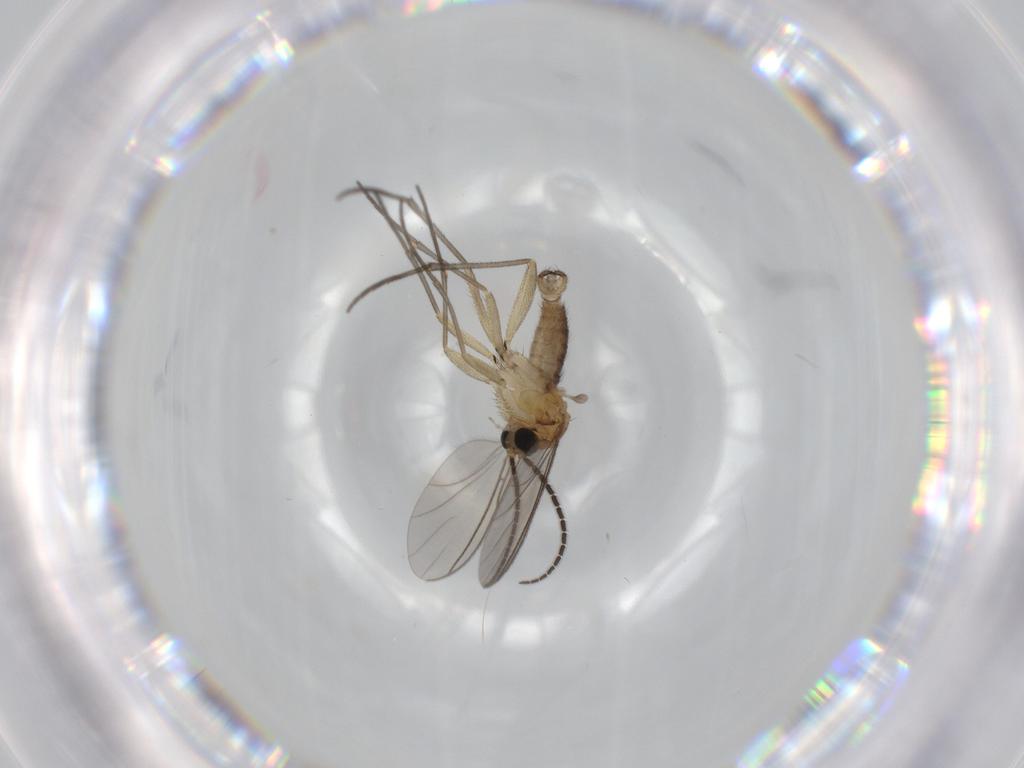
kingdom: Animalia
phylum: Arthropoda
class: Insecta
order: Diptera
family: Sciaridae
